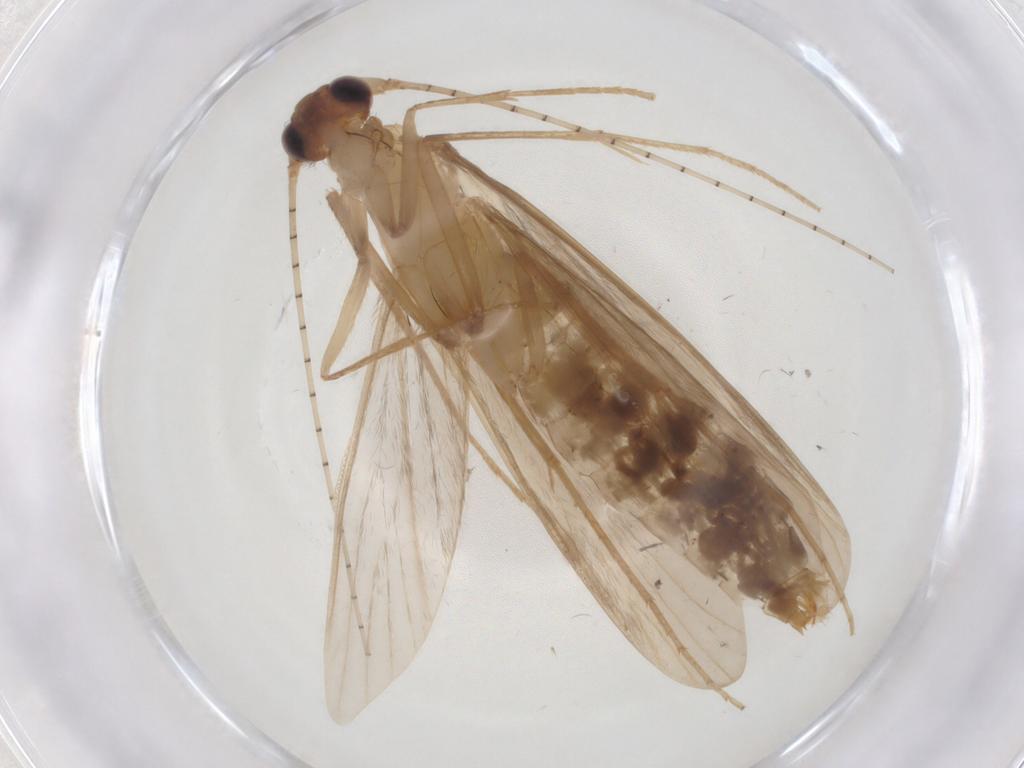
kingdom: Animalia
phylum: Arthropoda
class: Insecta
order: Trichoptera
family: Leptoceridae
